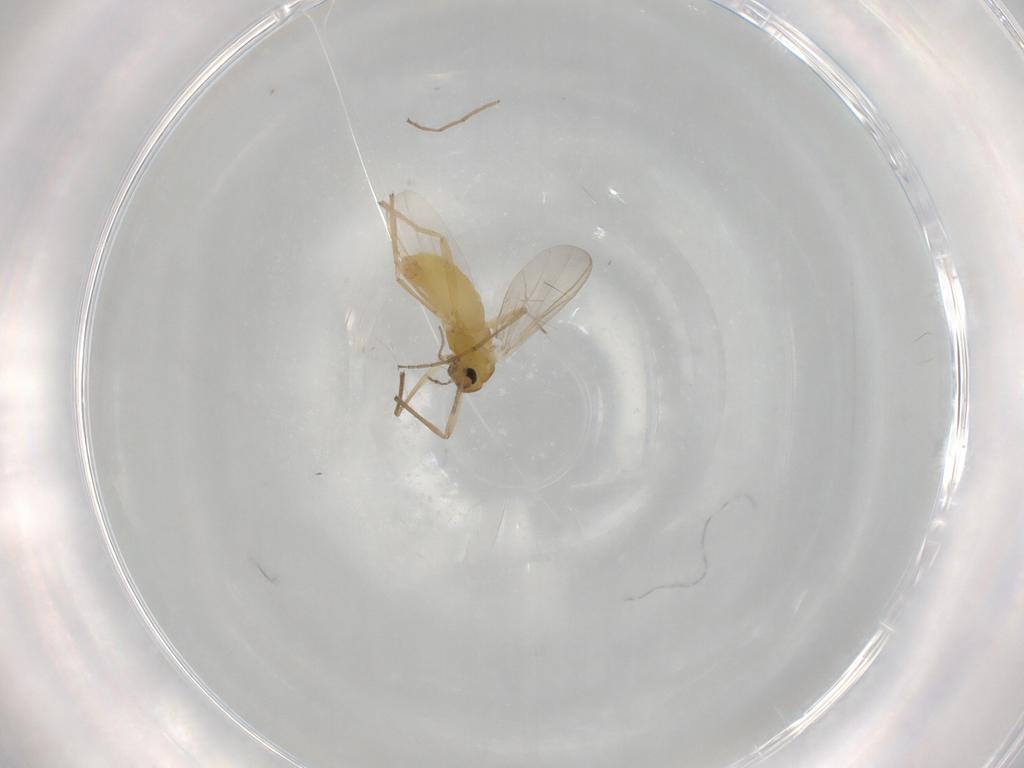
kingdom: Animalia
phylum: Arthropoda
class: Insecta
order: Diptera
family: Chironomidae
